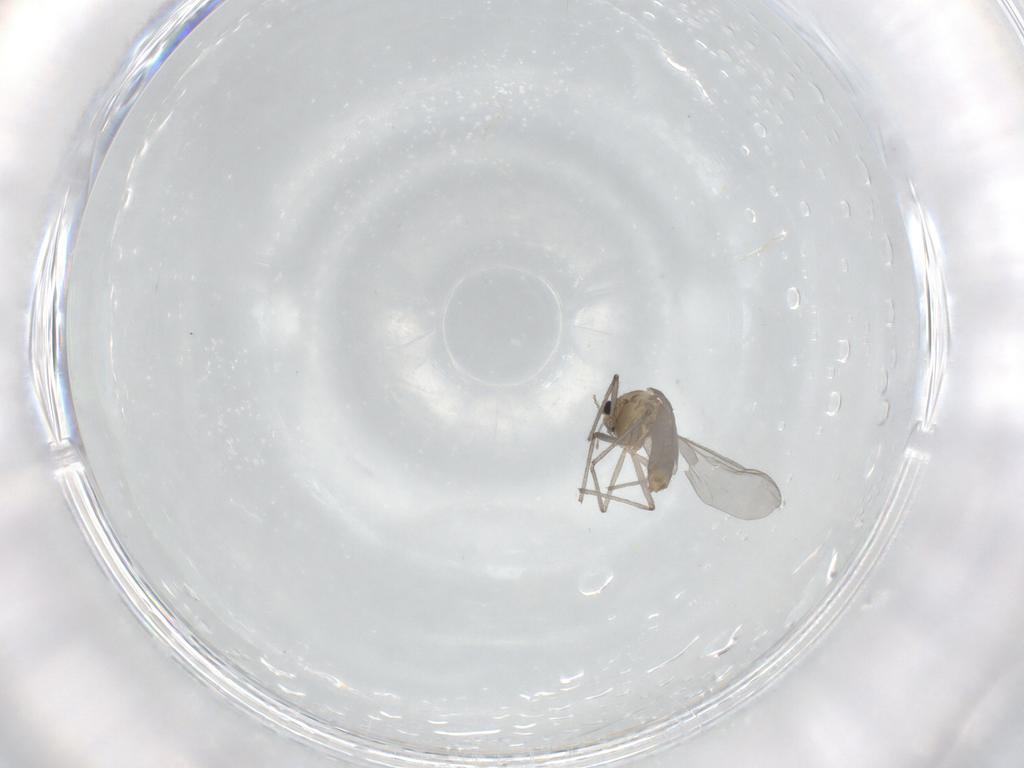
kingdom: Animalia
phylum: Arthropoda
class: Insecta
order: Diptera
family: Chironomidae
